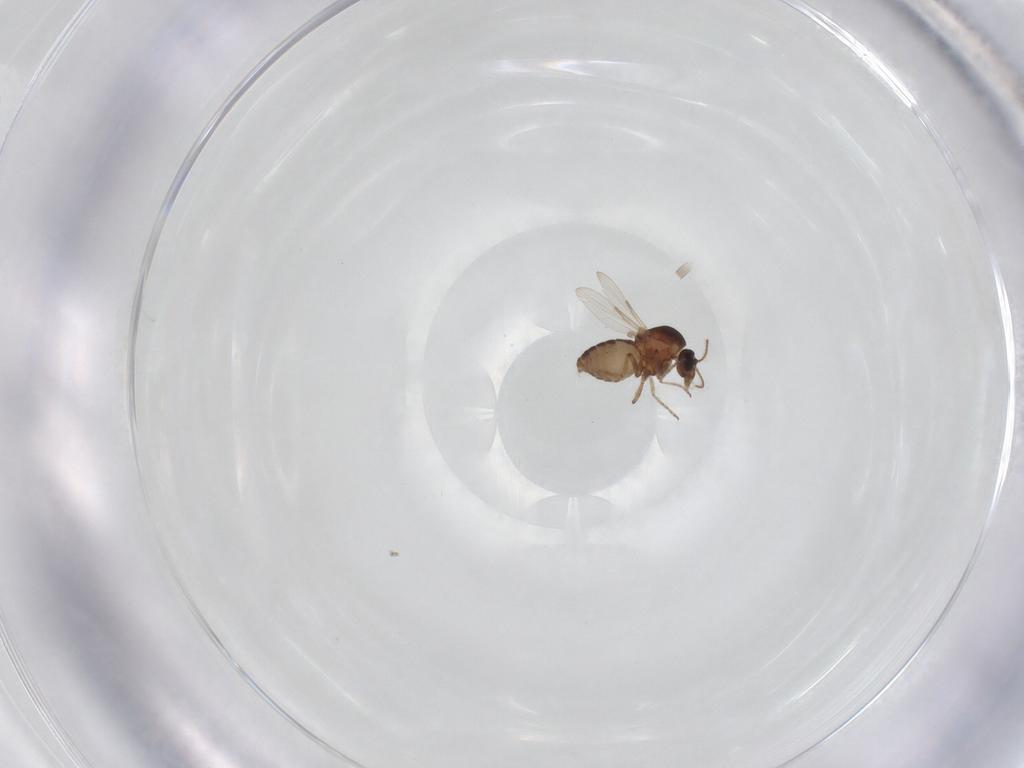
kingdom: Animalia
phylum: Arthropoda
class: Insecta
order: Diptera
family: Ceratopogonidae
